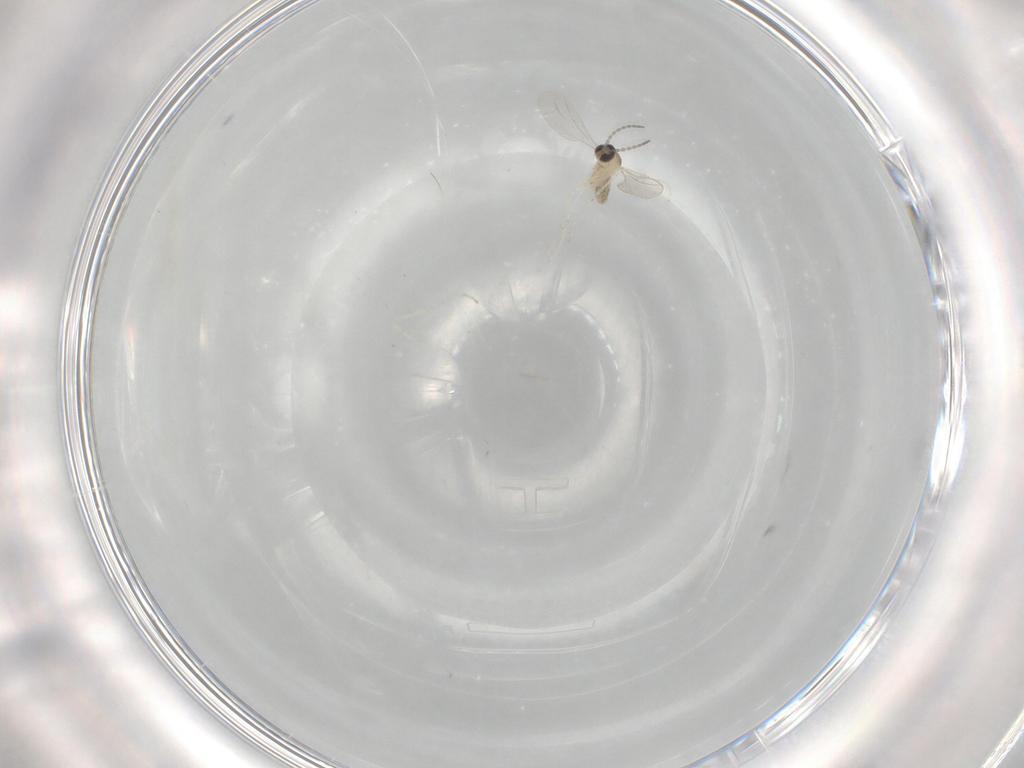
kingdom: Animalia
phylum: Arthropoda
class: Insecta
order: Diptera
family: Cecidomyiidae
